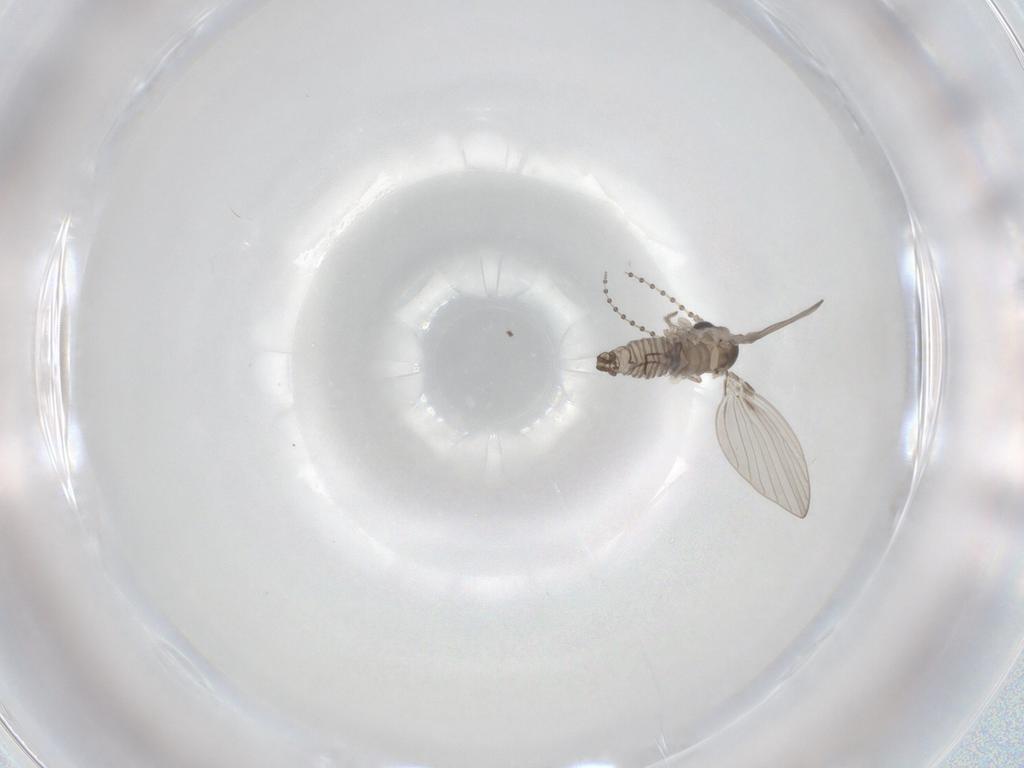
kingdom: Animalia
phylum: Arthropoda
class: Insecta
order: Diptera
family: Psychodidae
